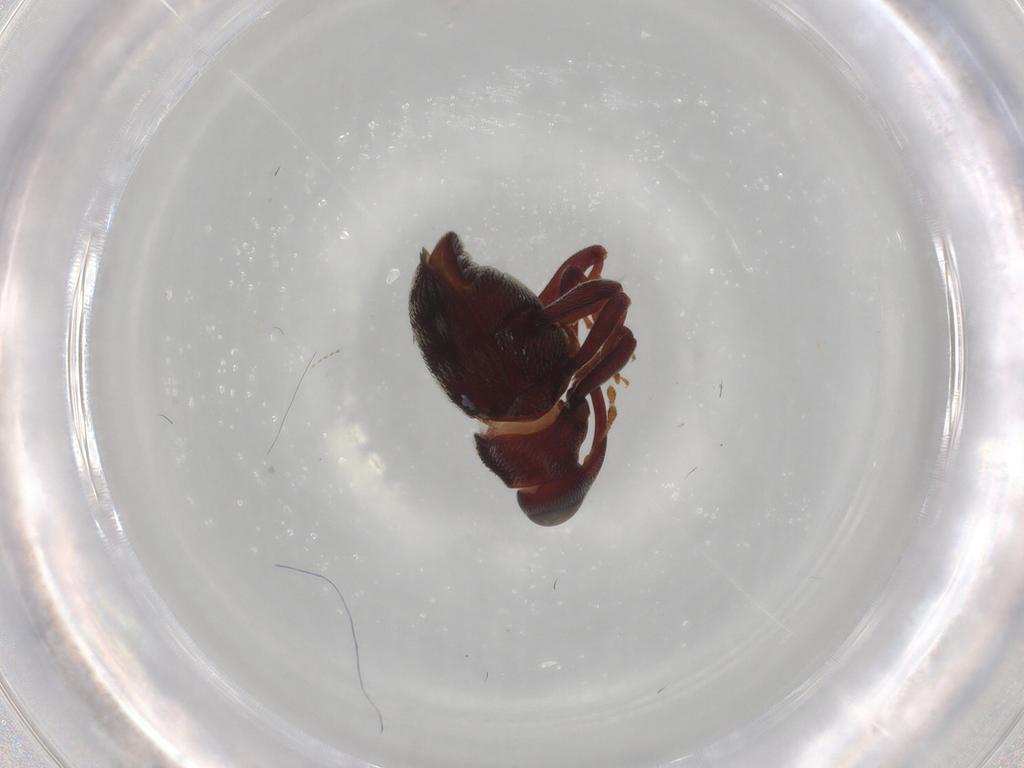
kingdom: Animalia
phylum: Arthropoda
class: Insecta
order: Coleoptera
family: Curculionidae
